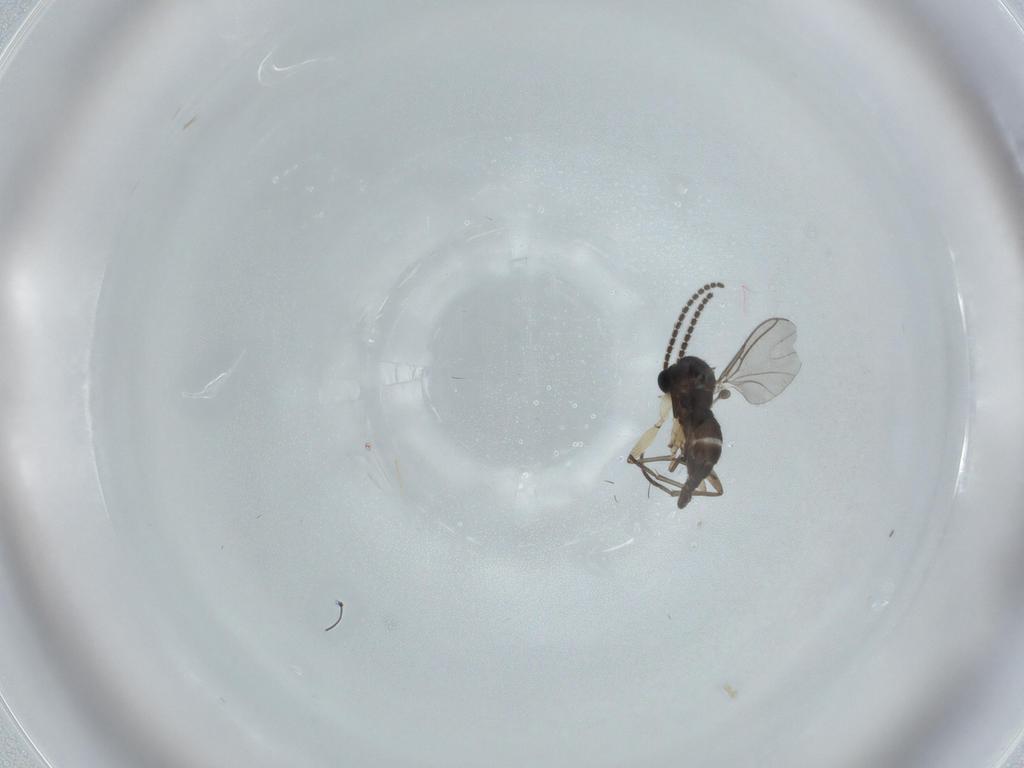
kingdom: Animalia
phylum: Arthropoda
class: Insecta
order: Diptera
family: Sciaridae
